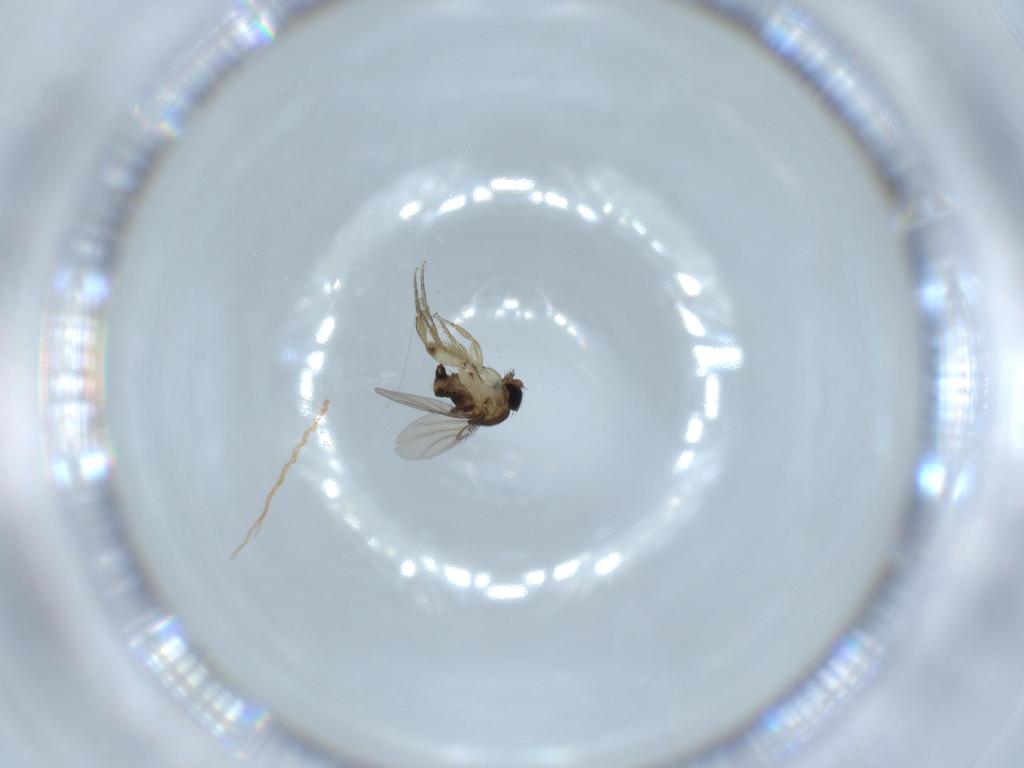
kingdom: Animalia
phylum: Arthropoda
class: Insecta
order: Diptera
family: Phoridae
